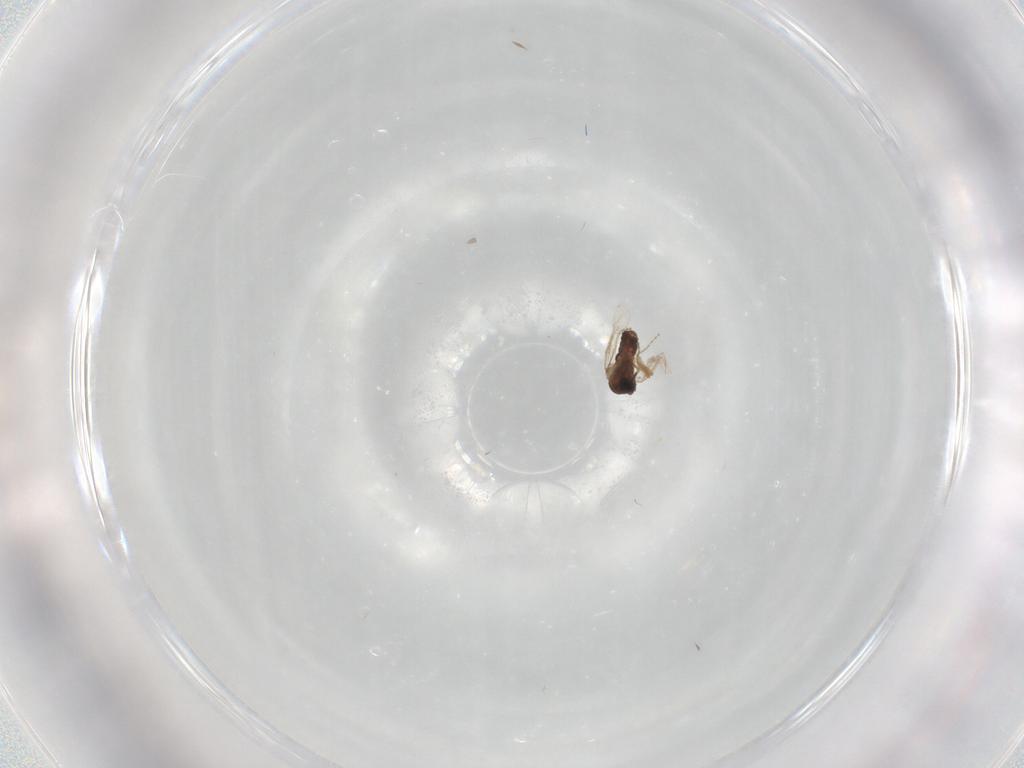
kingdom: Animalia
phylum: Arthropoda
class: Insecta
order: Diptera
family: Ceratopogonidae
